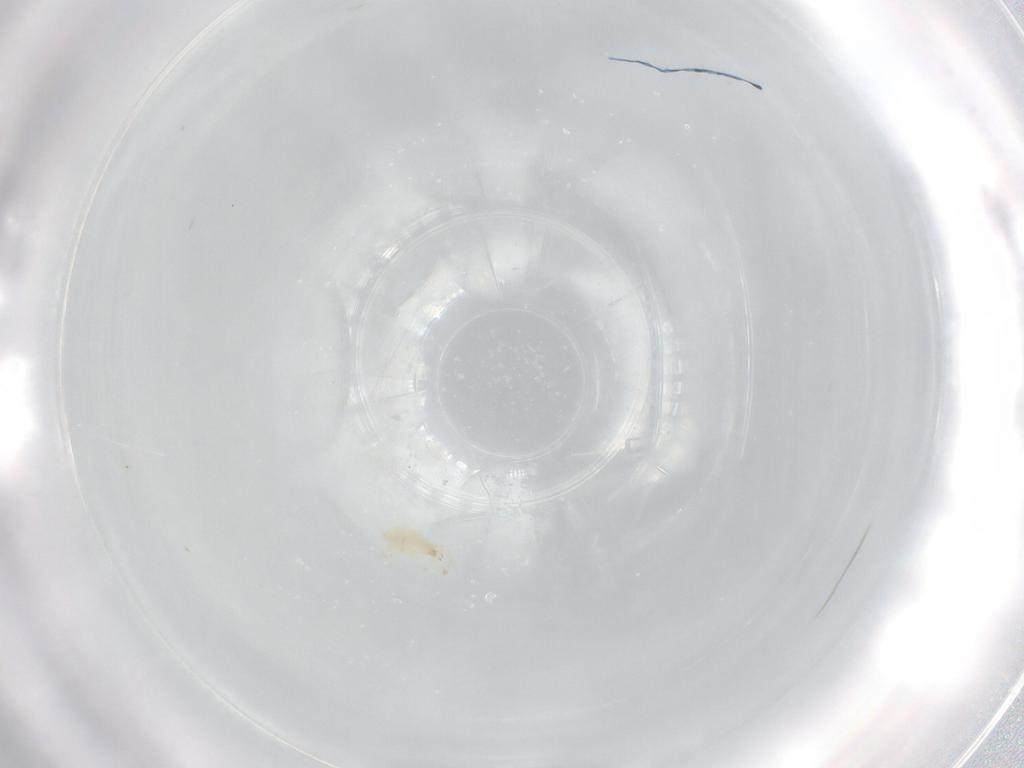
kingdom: Animalia
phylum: Arthropoda
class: Arachnida
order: Trombidiformes
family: Stigmaeidae
